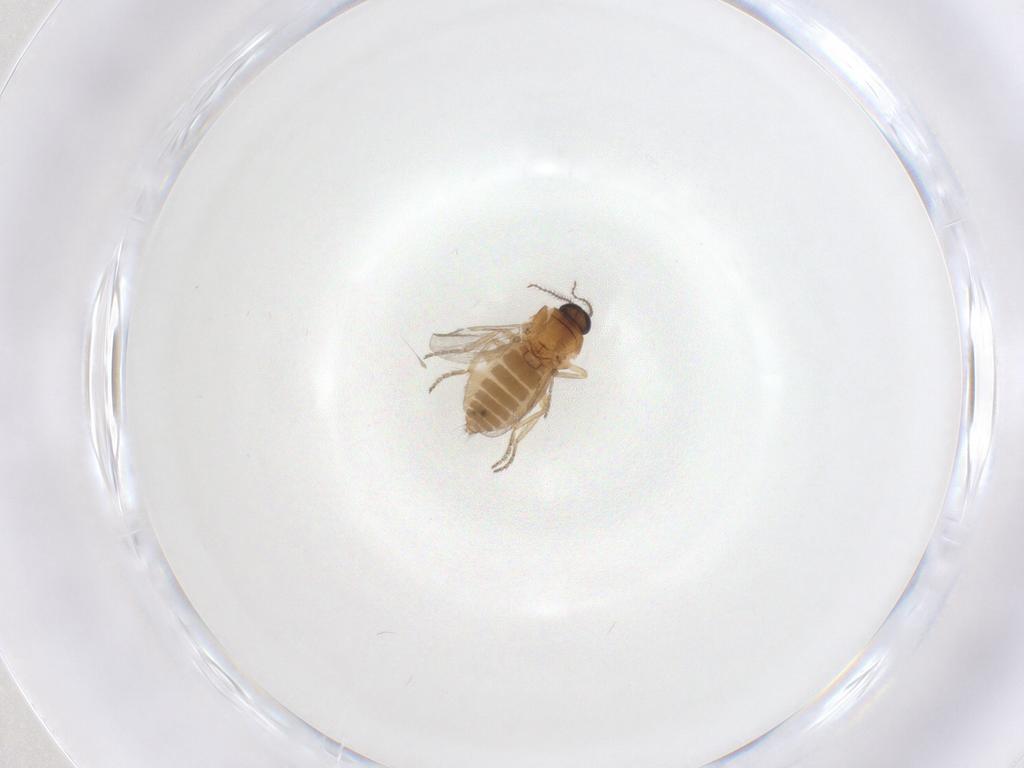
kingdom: Animalia
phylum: Arthropoda
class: Insecta
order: Diptera
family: Ceratopogonidae
